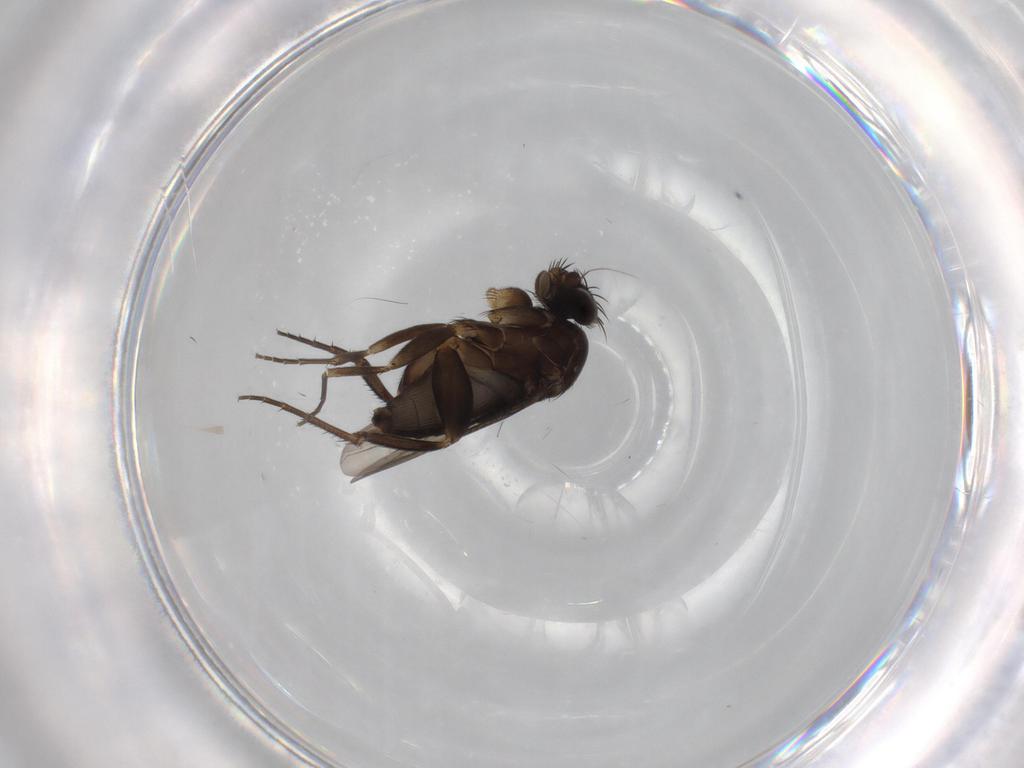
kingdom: Animalia
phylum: Arthropoda
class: Insecta
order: Diptera
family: Phoridae
